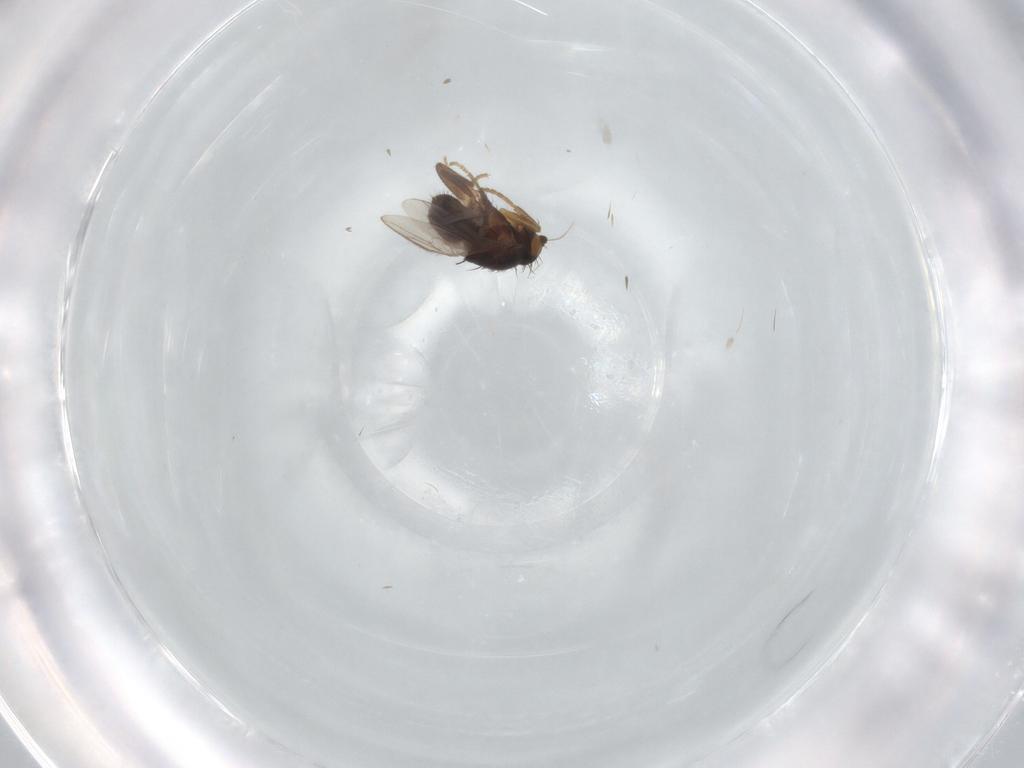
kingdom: Animalia
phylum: Arthropoda
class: Insecta
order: Diptera
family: Sphaeroceridae
